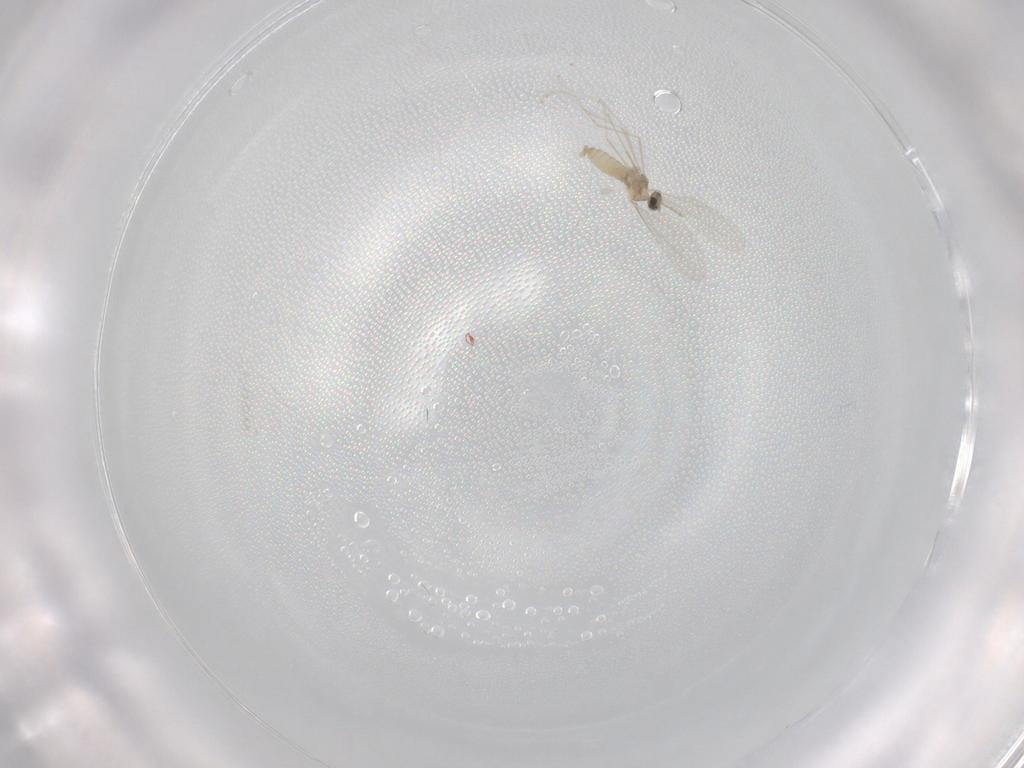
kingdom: Animalia
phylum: Arthropoda
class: Insecta
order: Diptera
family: Cecidomyiidae
